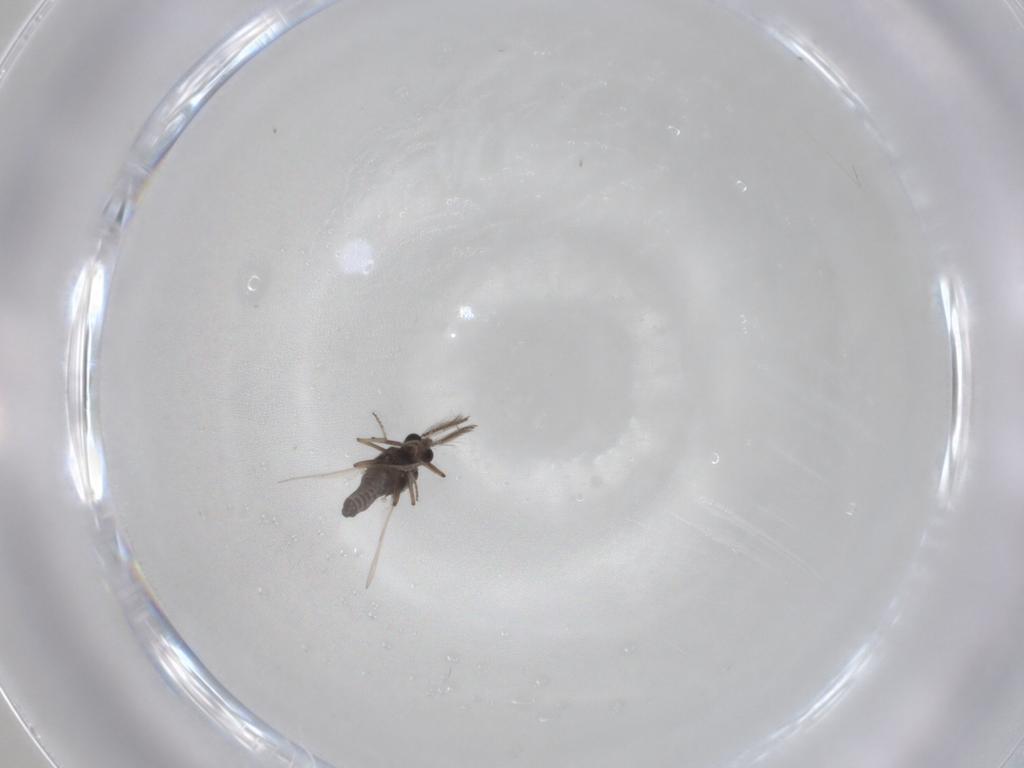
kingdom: Animalia
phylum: Arthropoda
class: Insecta
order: Diptera
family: Ceratopogonidae
